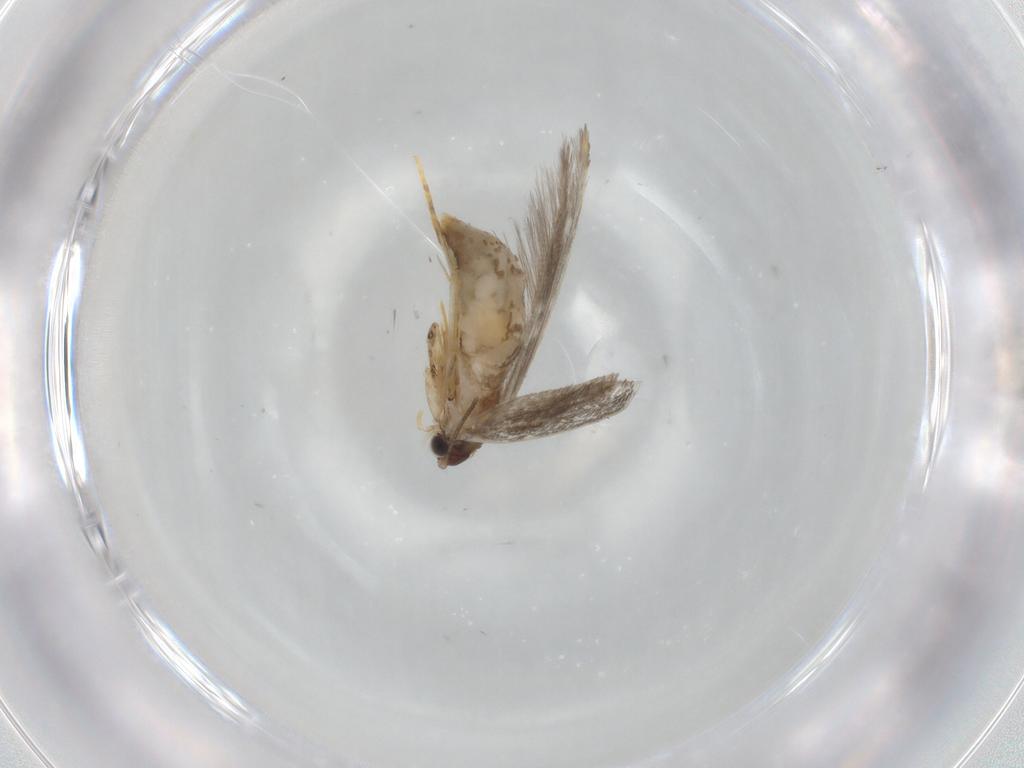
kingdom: Animalia
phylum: Arthropoda
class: Insecta
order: Lepidoptera
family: Tineidae
